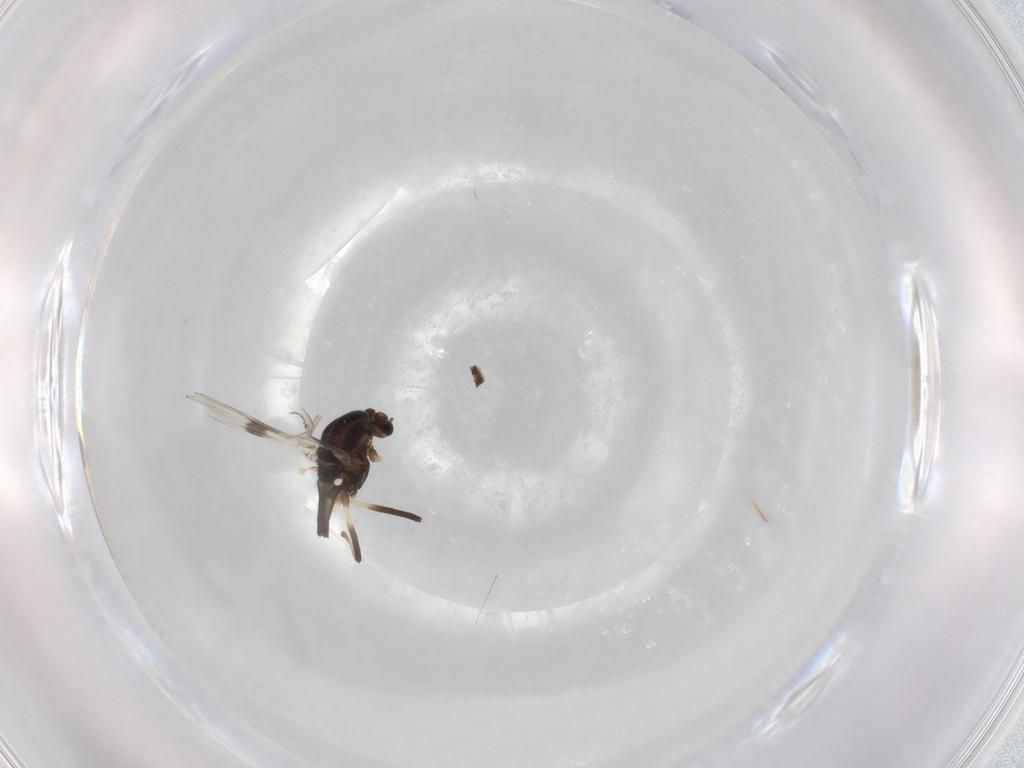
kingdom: Animalia
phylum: Arthropoda
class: Insecta
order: Diptera
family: Chironomidae
